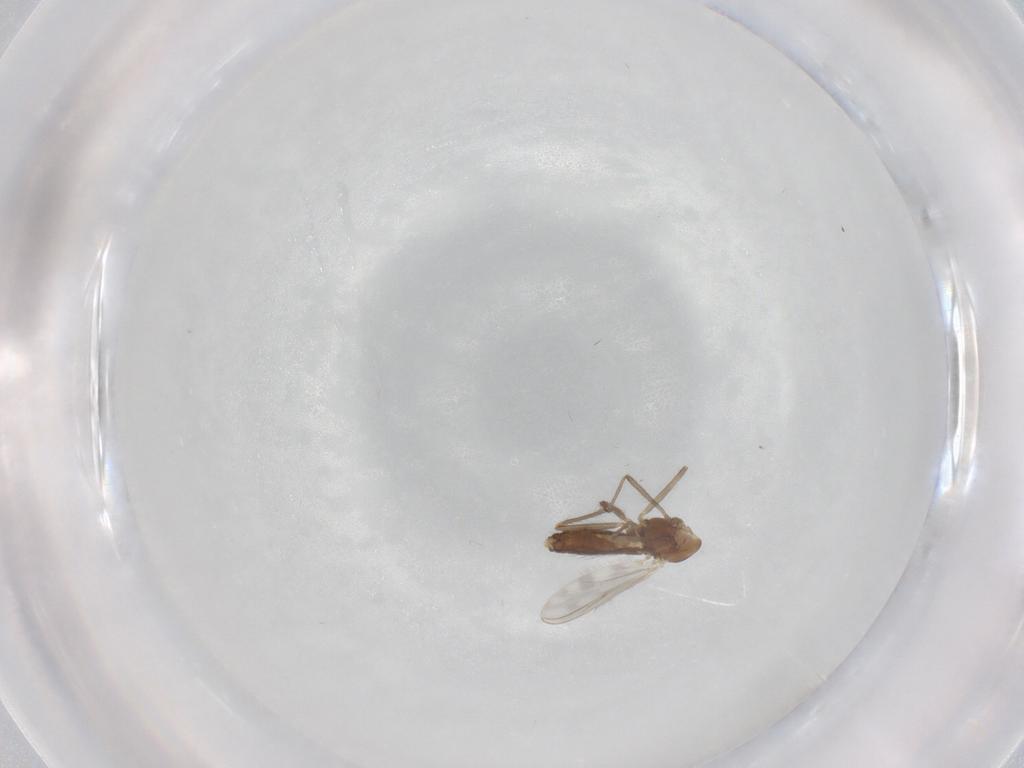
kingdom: Animalia
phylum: Arthropoda
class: Insecta
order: Diptera
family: Chironomidae
